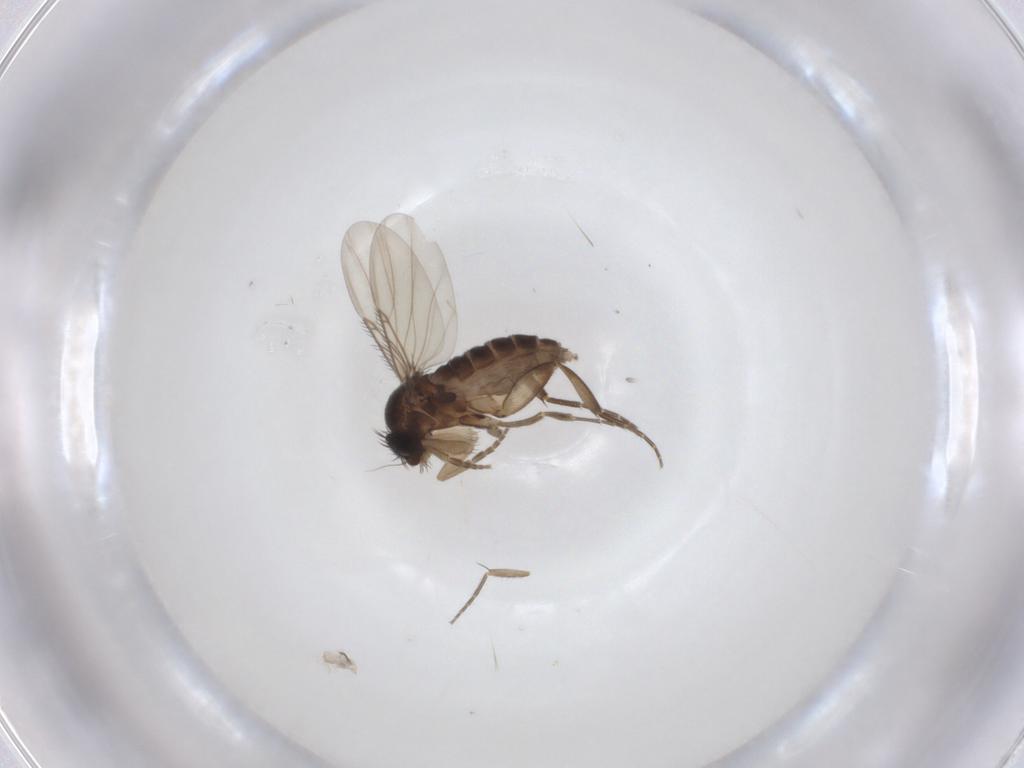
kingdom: Animalia
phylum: Arthropoda
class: Insecta
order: Diptera
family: Phoridae
